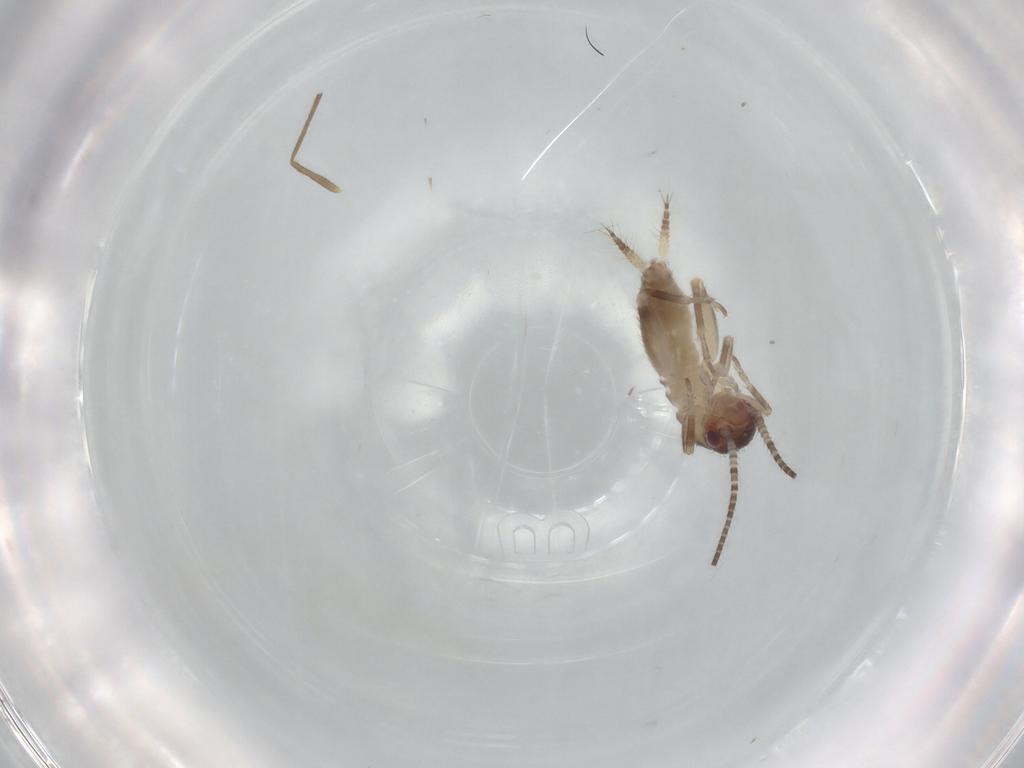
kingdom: Animalia
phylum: Arthropoda
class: Insecta
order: Orthoptera
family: Mogoplistidae
